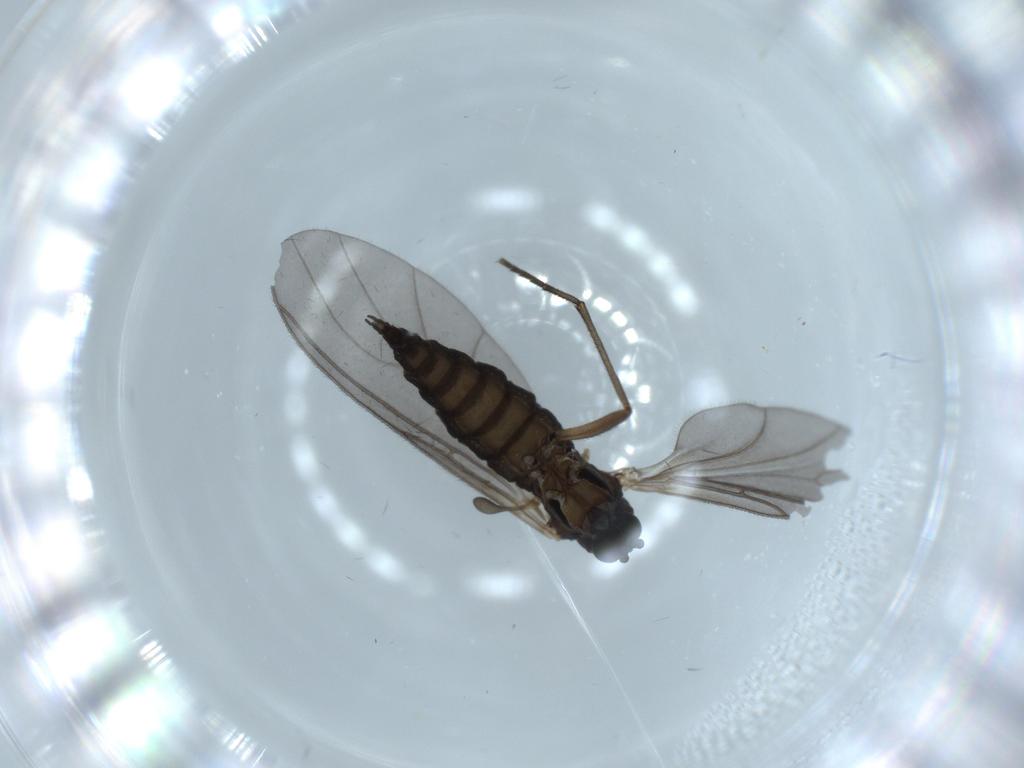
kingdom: Animalia
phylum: Arthropoda
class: Insecta
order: Diptera
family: Sciaridae
